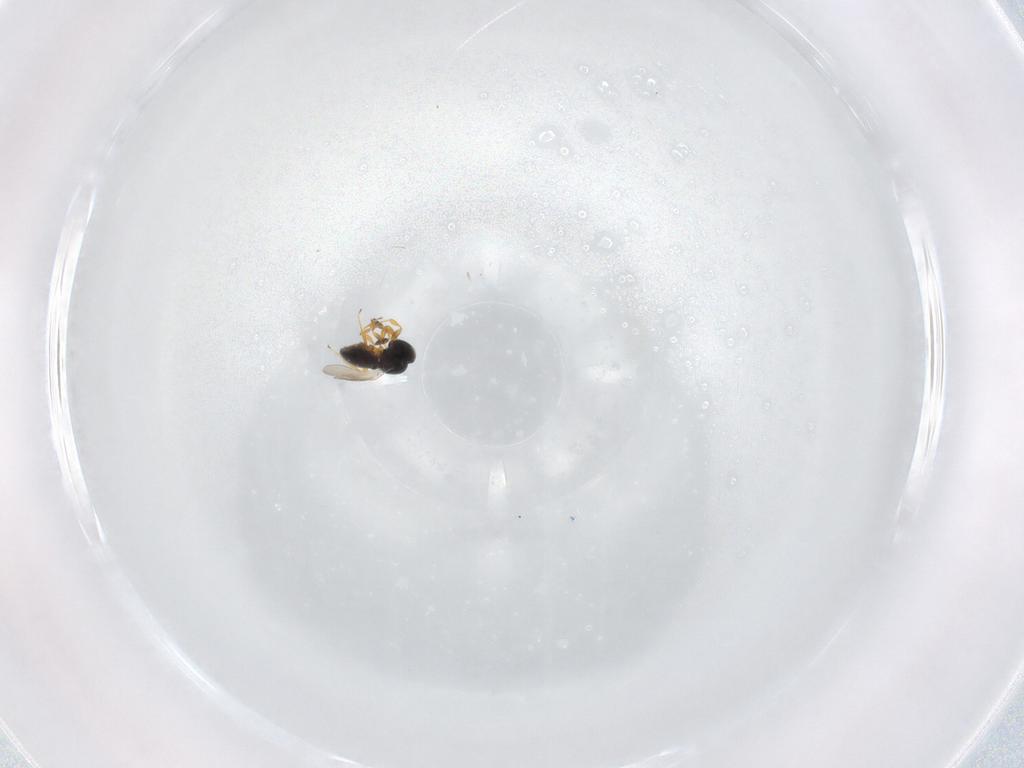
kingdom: Animalia
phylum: Arthropoda
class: Insecta
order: Hymenoptera
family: Platygastridae
